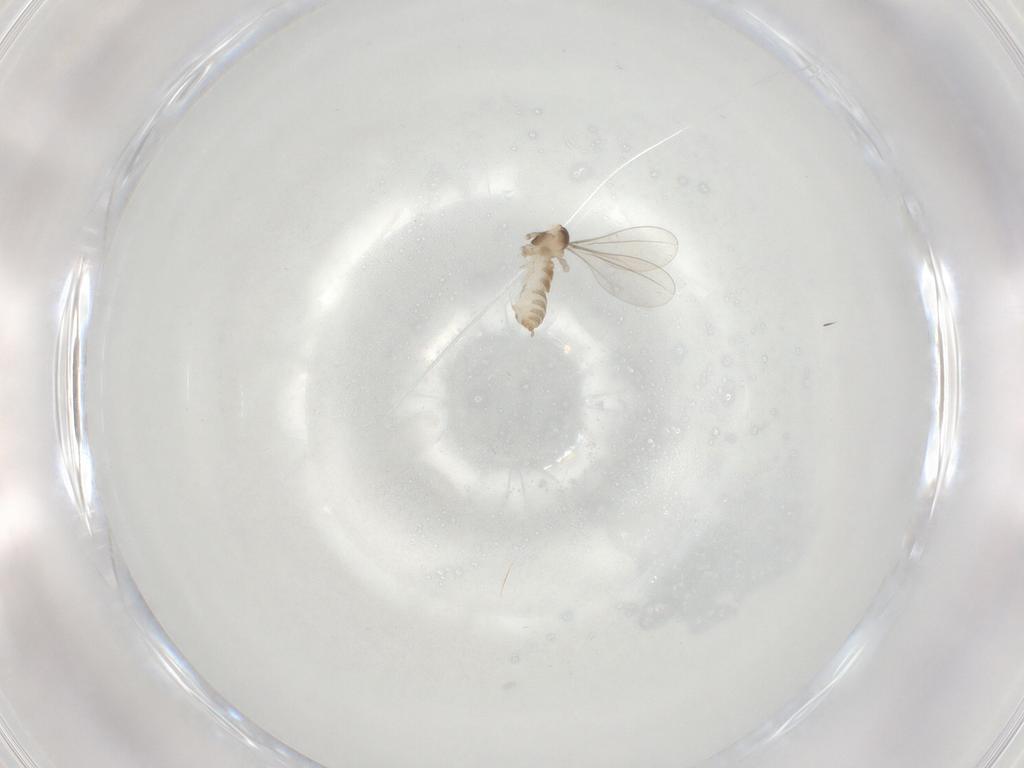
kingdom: Animalia
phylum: Arthropoda
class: Insecta
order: Diptera
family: Cecidomyiidae
